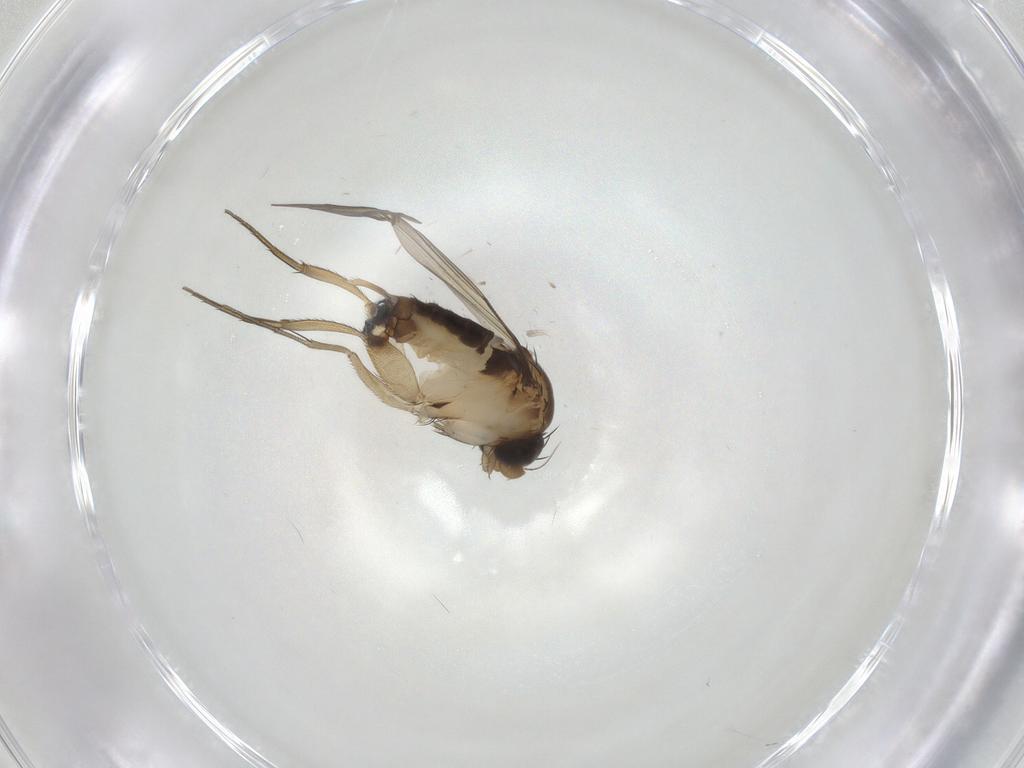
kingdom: Animalia
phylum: Arthropoda
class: Insecta
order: Diptera
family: Phoridae
